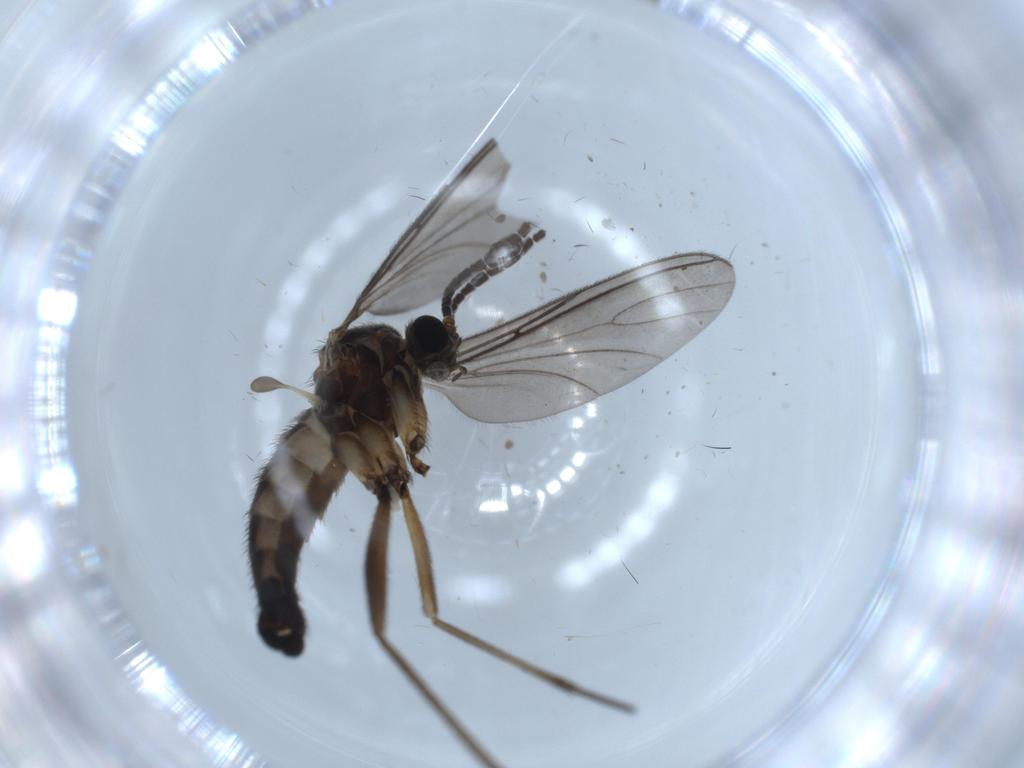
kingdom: Animalia
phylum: Arthropoda
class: Insecta
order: Diptera
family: Sciaridae
